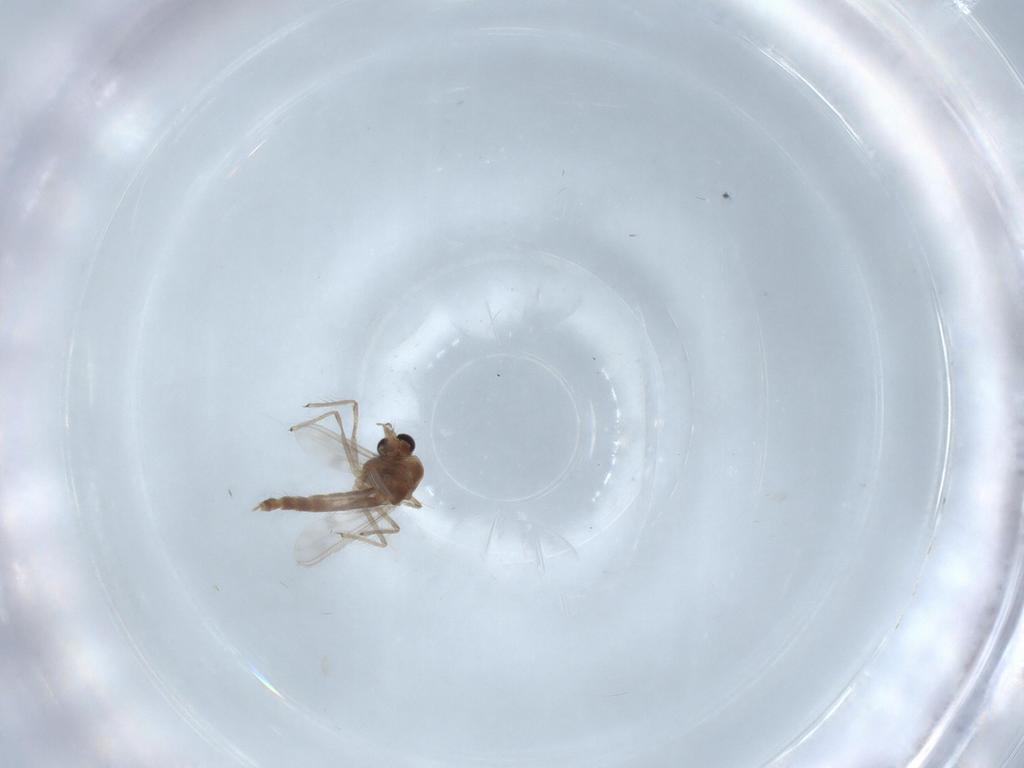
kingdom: Animalia
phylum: Arthropoda
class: Insecta
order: Diptera
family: Chironomidae
